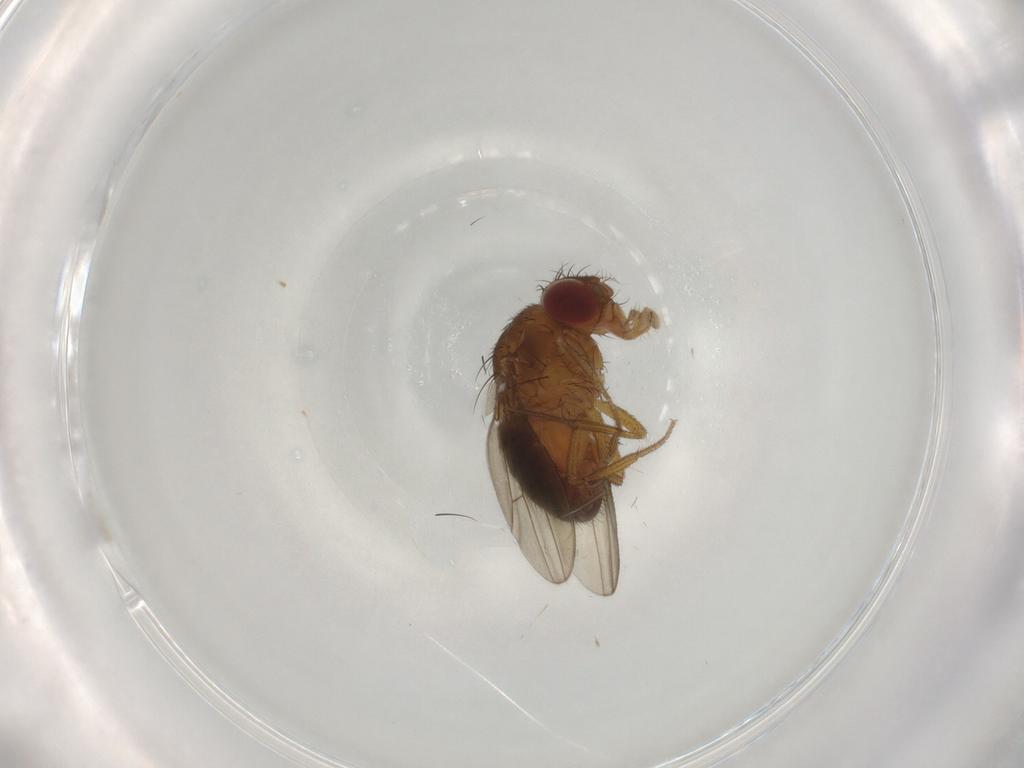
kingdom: Animalia
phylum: Arthropoda
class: Insecta
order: Diptera
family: Drosophilidae
